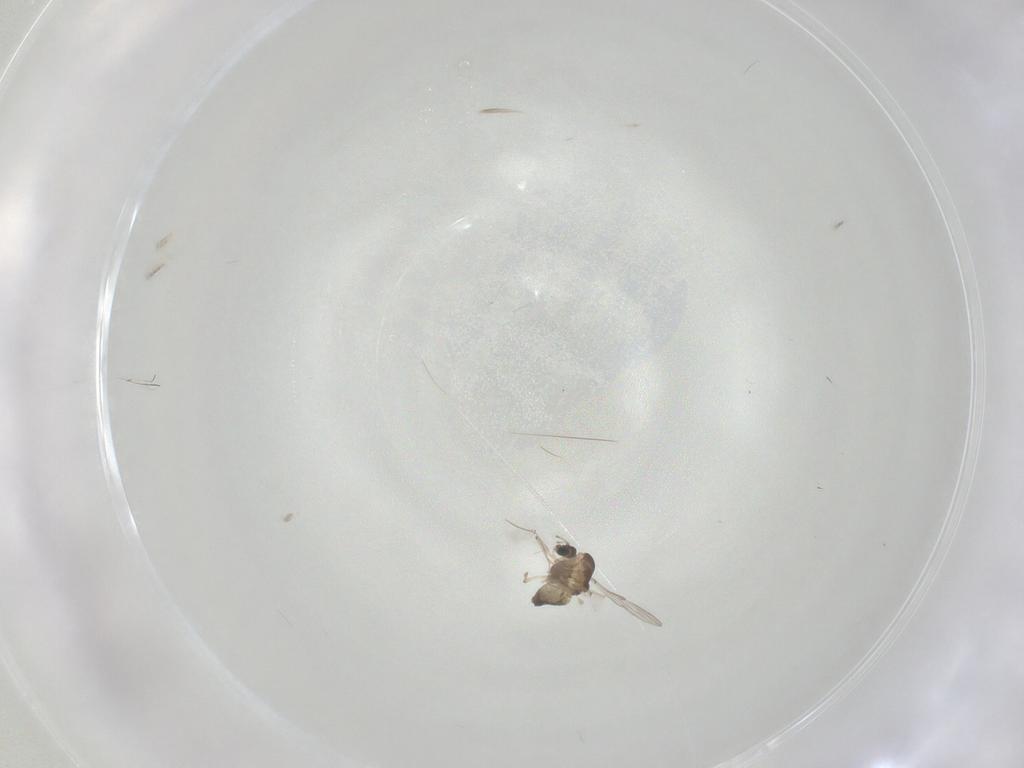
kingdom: Animalia
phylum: Arthropoda
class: Insecta
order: Diptera
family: Chironomidae
